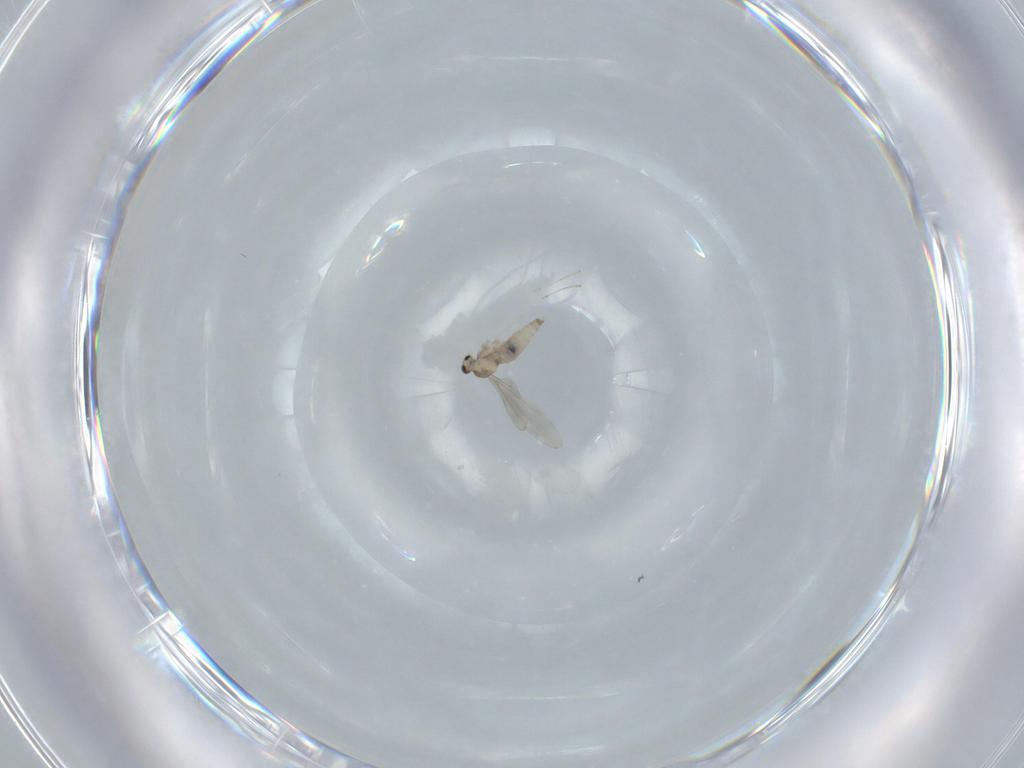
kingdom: Animalia
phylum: Arthropoda
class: Insecta
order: Diptera
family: Cecidomyiidae
